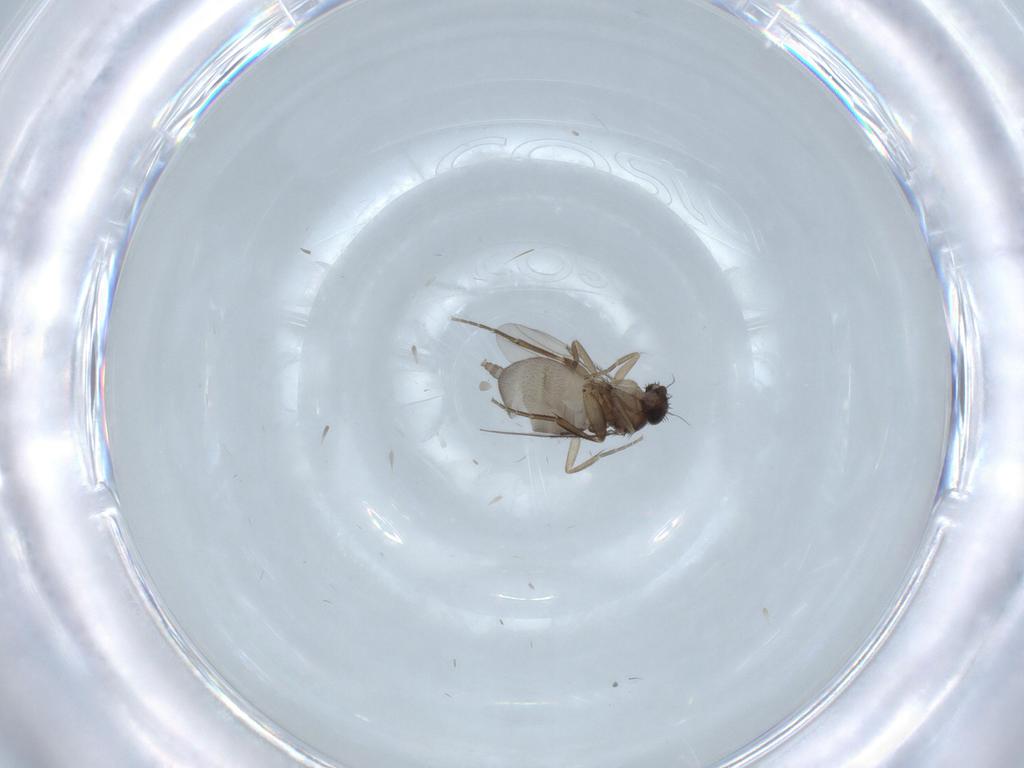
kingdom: Animalia
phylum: Arthropoda
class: Insecta
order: Diptera
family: Phoridae
